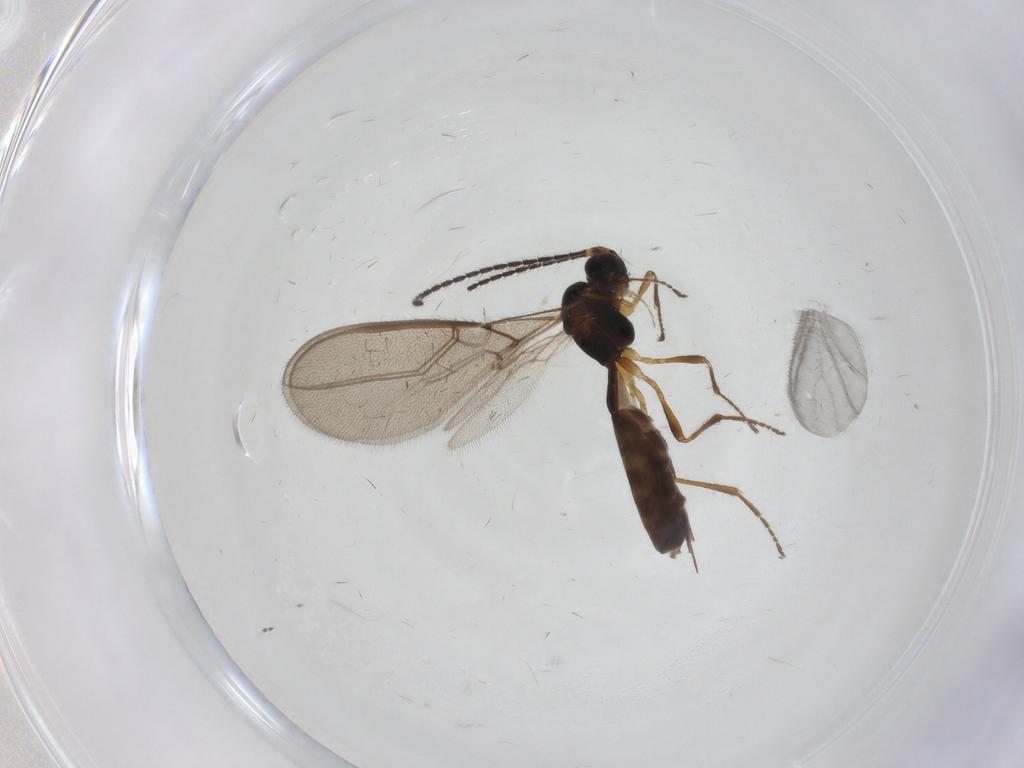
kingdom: Animalia
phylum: Arthropoda
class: Insecta
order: Hymenoptera
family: Braconidae
